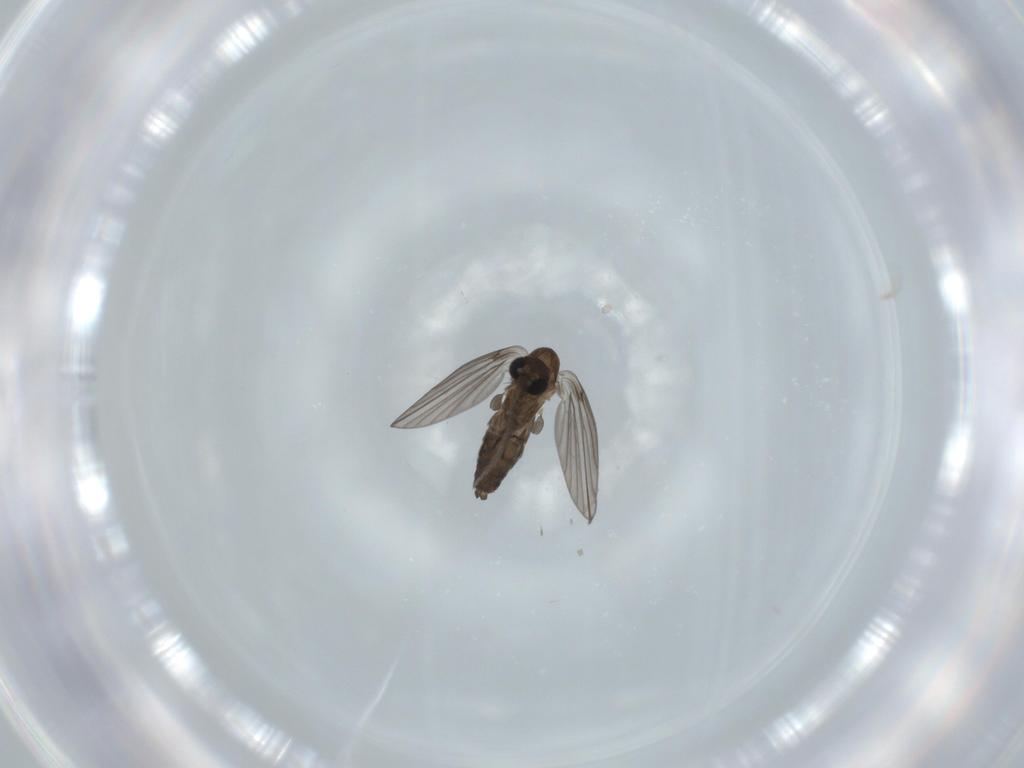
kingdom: Animalia
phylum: Arthropoda
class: Insecta
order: Diptera
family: Psychodidae
